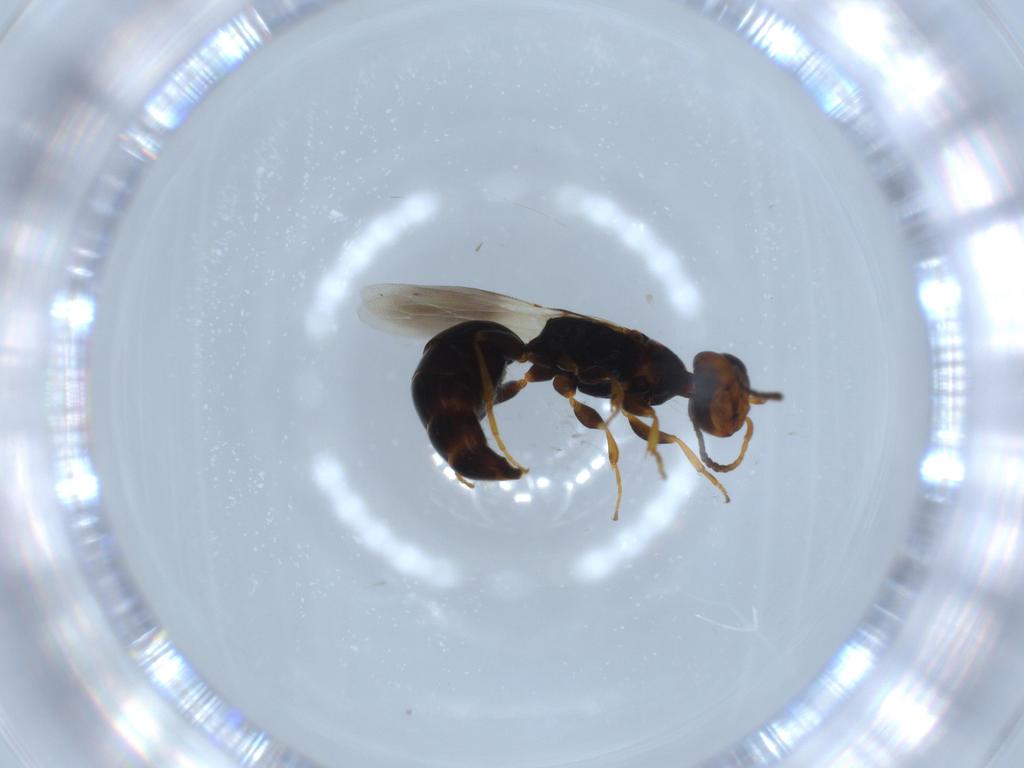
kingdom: Animalia
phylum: Arthropoda
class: Insecta
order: Hymenoptera
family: Bethylidae
